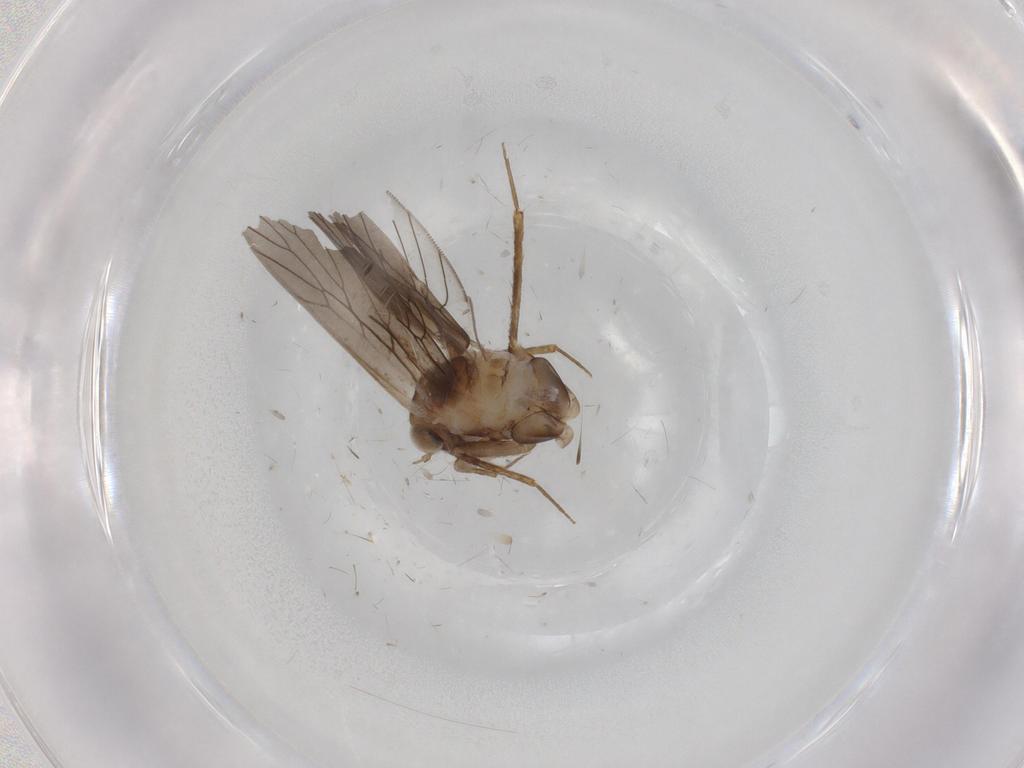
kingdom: Animalia
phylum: Arthropoda
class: Insecta
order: Psocodea
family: Lepidopsocidae
